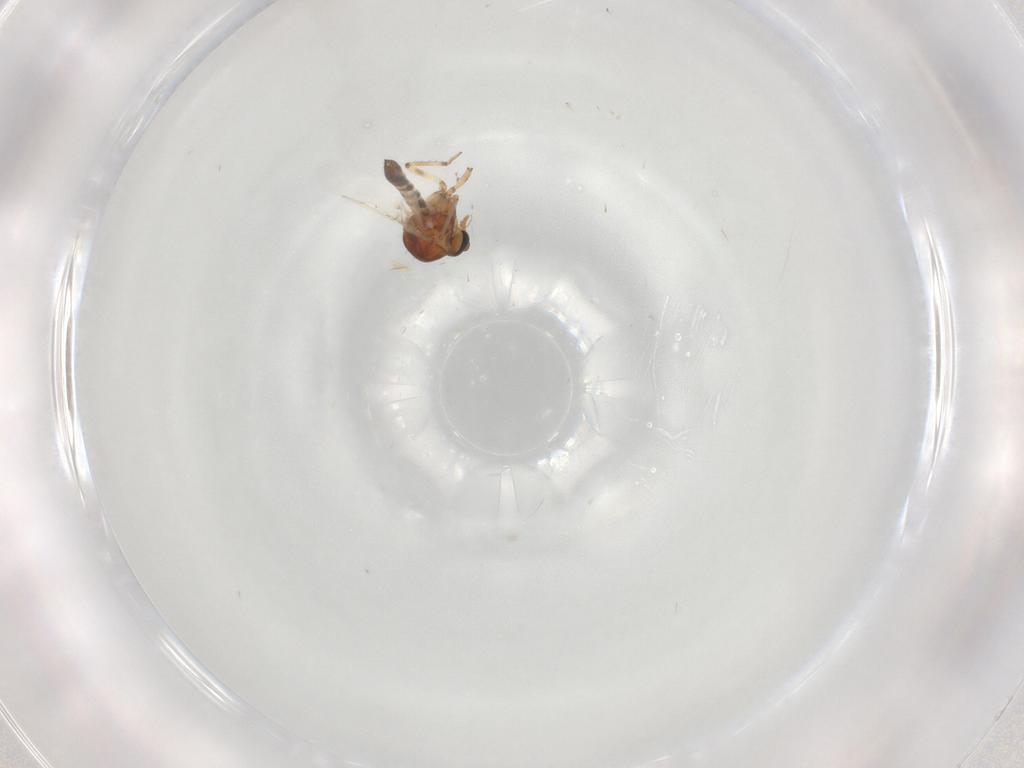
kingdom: Animalia
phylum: Arthropoda
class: Insecta
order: Diptera
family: Ceratopogonidae
